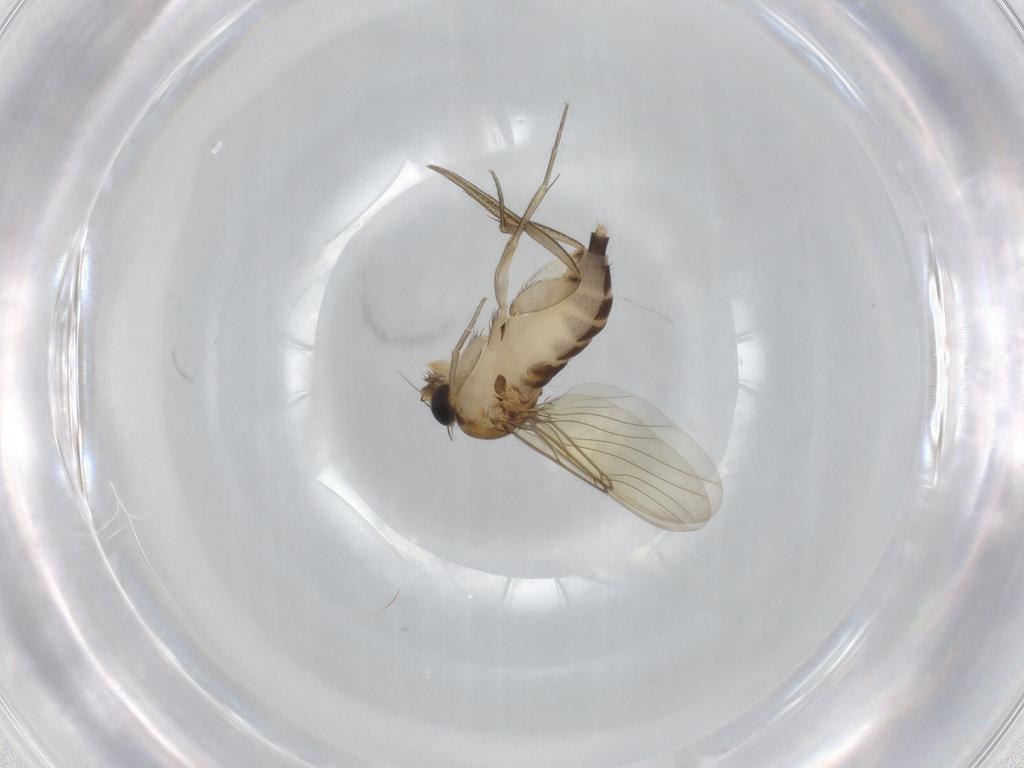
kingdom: Animalia
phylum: Arthropoda
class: Insecta
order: Diptera
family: Phoridae
